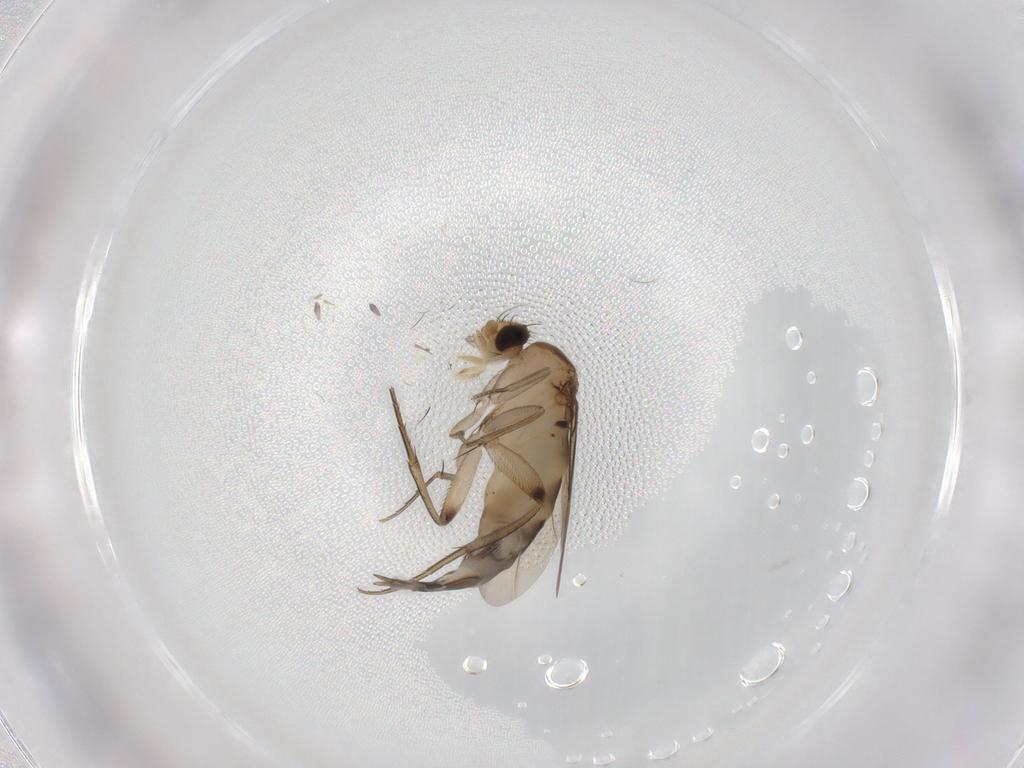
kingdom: Animalia
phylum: Arthropoda
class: Insecta
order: Diptera
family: Phoridae
